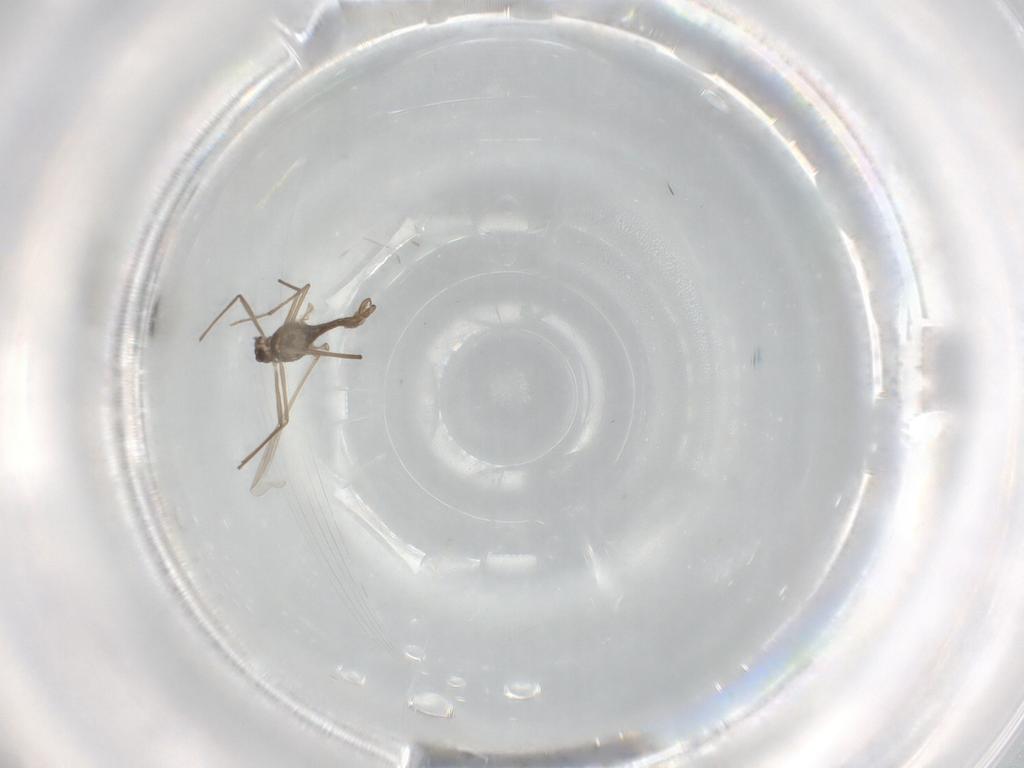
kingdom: Animalia
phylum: Arthropoda
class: Insecta
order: Diptera
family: Chironomidae
